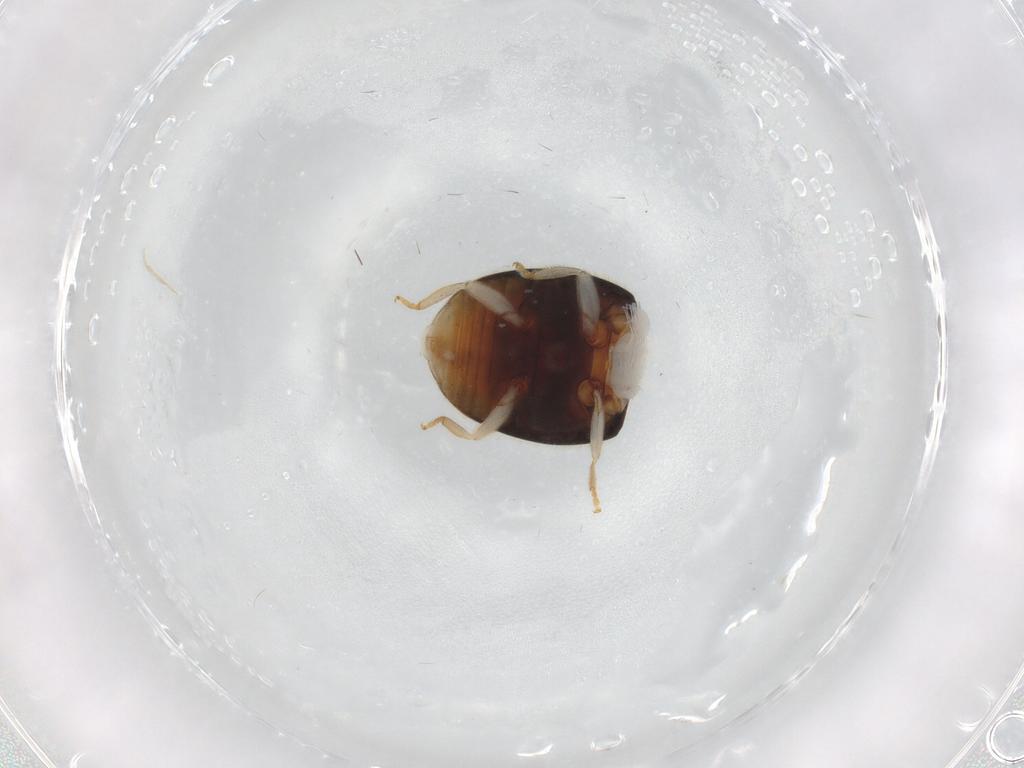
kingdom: Animalia
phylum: Arthropoda
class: Insecta
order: Coleoptera
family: Coccinellidae
